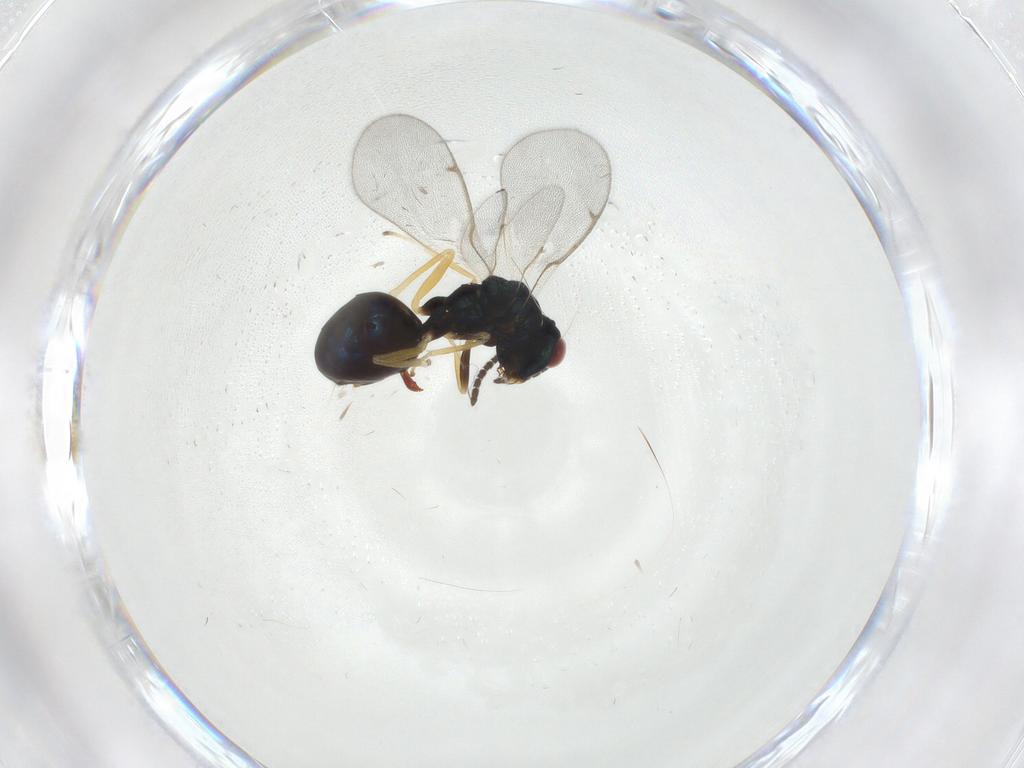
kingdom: Animalia
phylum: Arthropoda
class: Insecta
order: Hymenoptera
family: Eucharitidae
